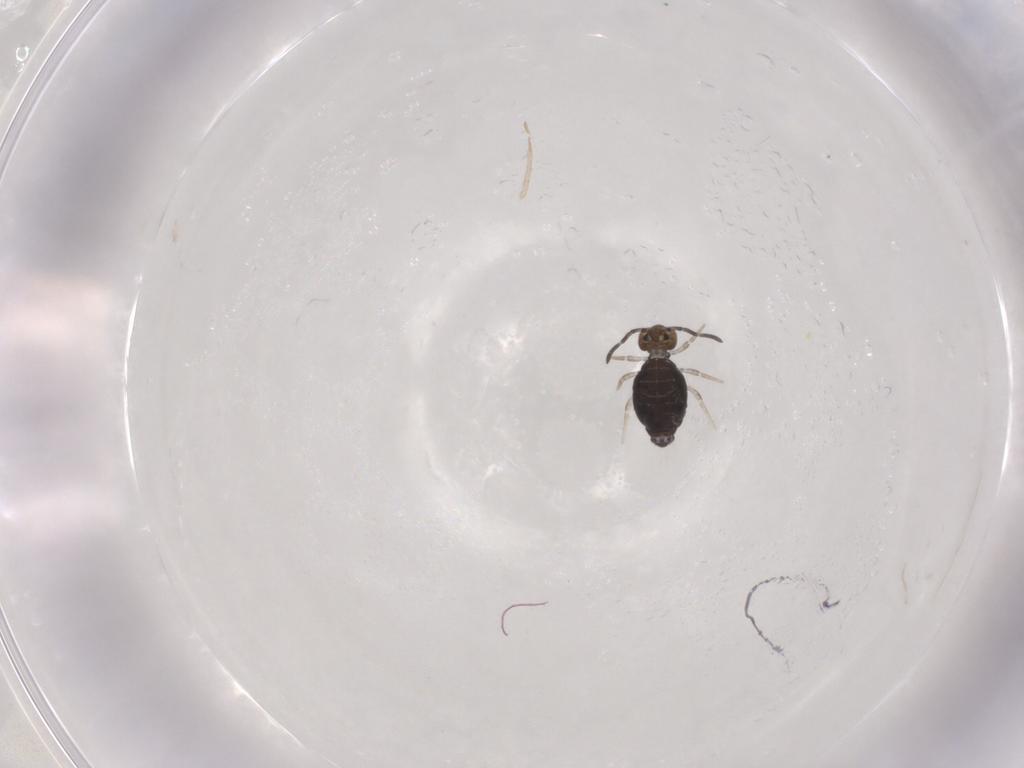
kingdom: Animalia
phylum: Arthropoda
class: Collembola
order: Symphypleona
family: Katiannidae
